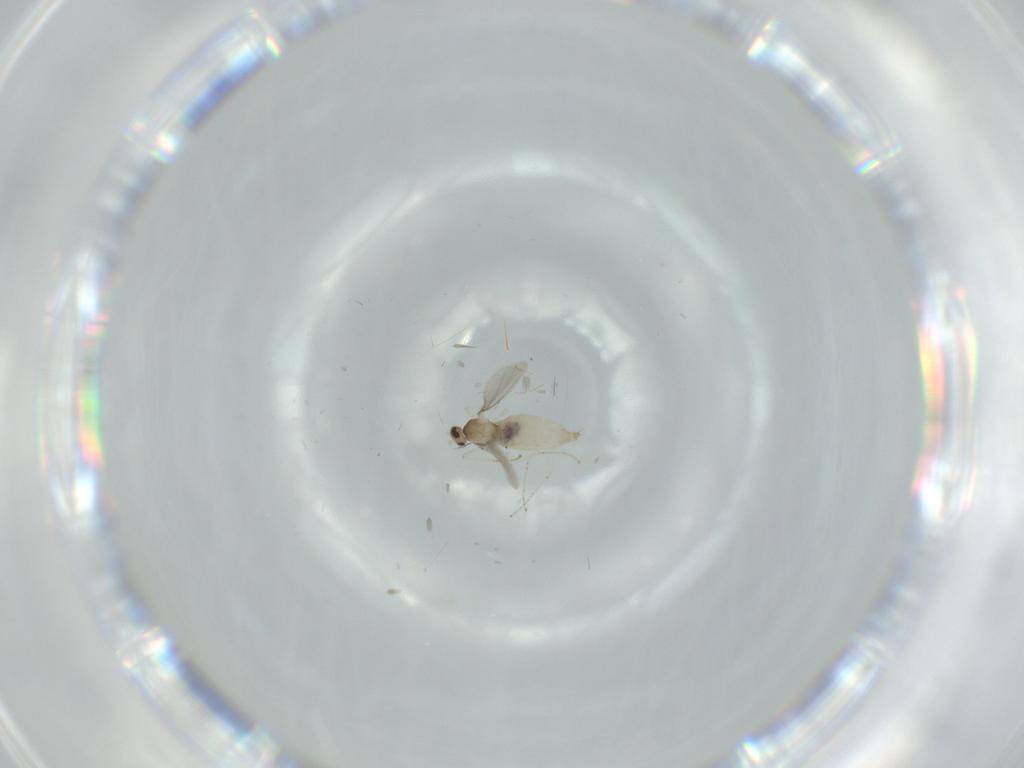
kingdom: Animalia
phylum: Arthropoda
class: Insecta
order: Diptera
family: Cecidomyiidae
